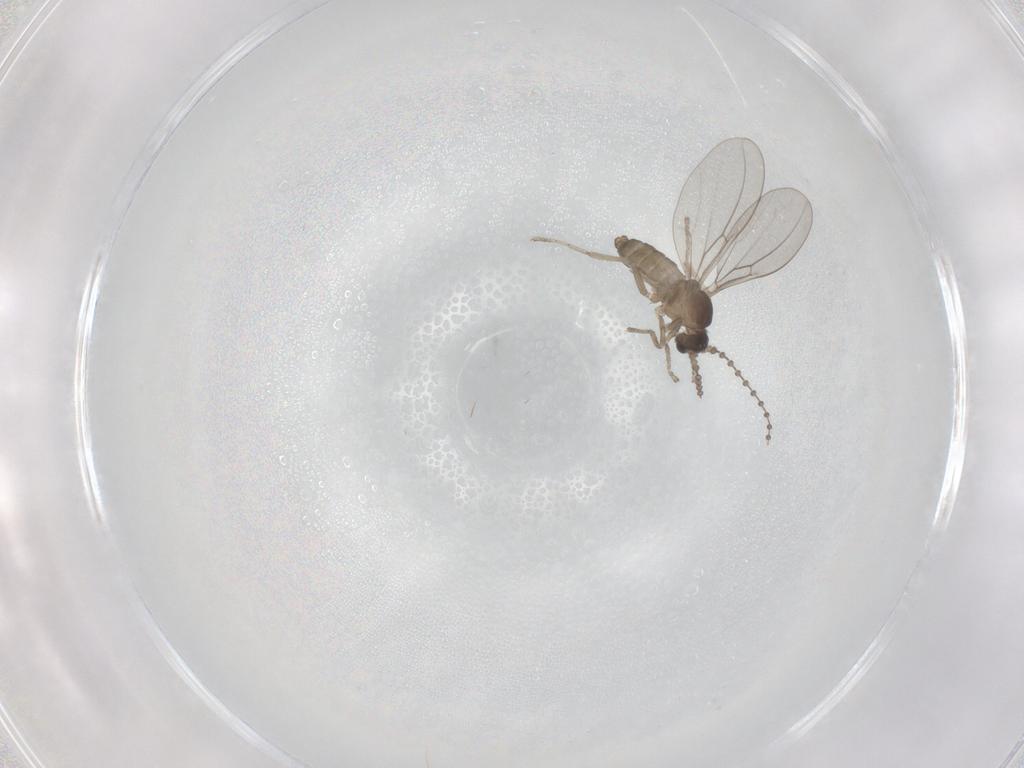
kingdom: Animalia
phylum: Arthropoda
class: Insecta
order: Diptera
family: Cecidomyiidae
